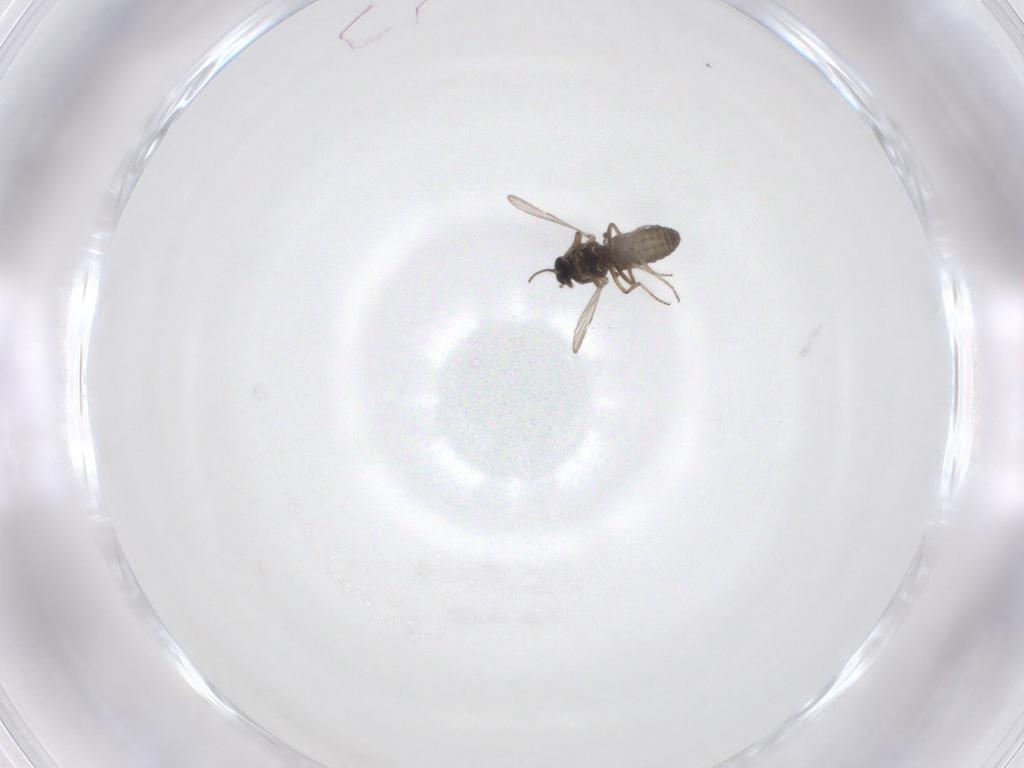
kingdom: Animalia
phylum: Arthropoda
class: Insecta
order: Diptera
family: Ceratopogonidae
